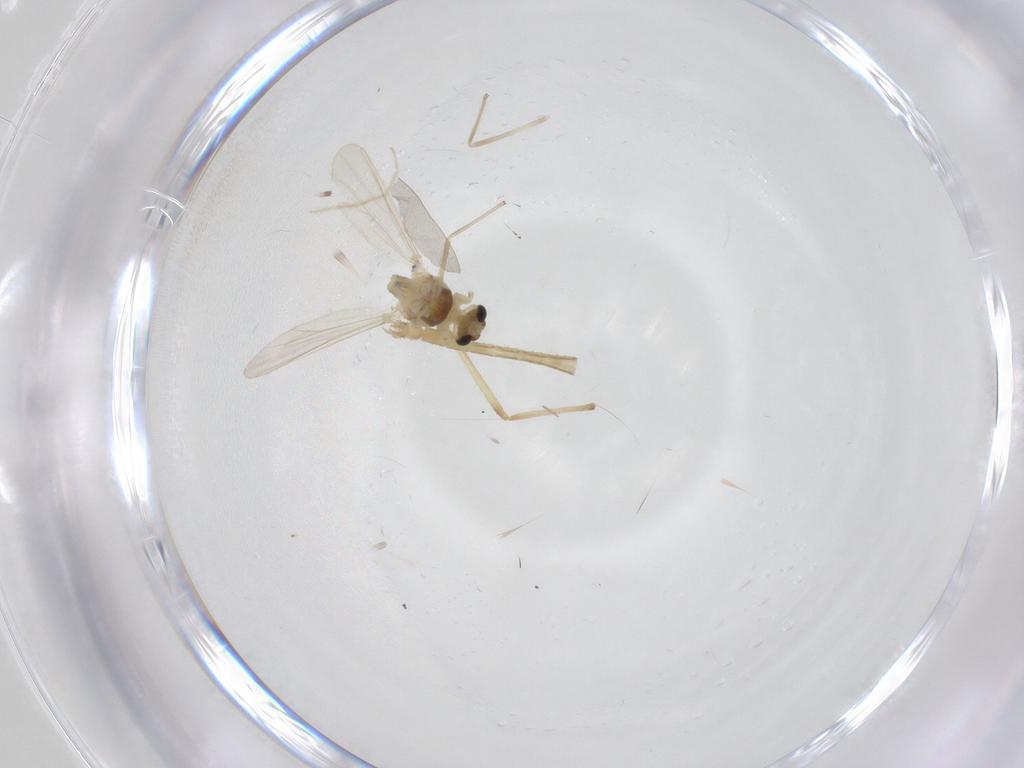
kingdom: Animalia
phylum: Arthropoda
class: Insecta
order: Diptera
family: Chironomidae
